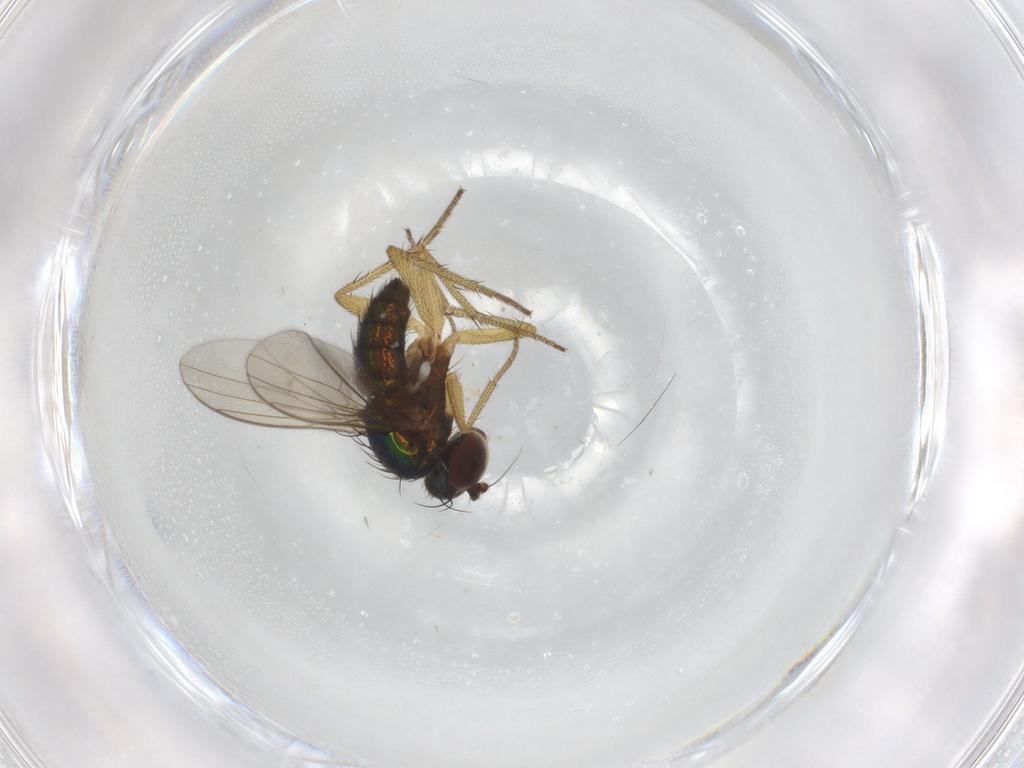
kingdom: Animalia
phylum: Arthropoda
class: Insecta
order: Diptera
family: Dolichopodidae
